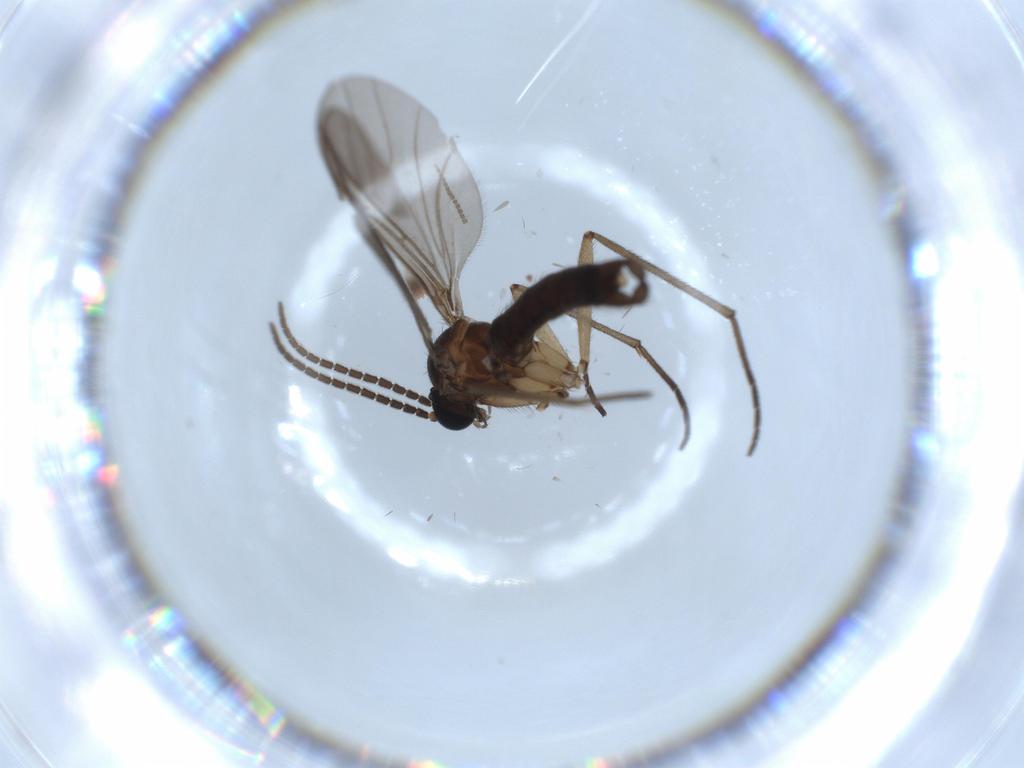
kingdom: Animalia
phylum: Arthropoda
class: Insecta
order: Diptera
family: Sciaridae
